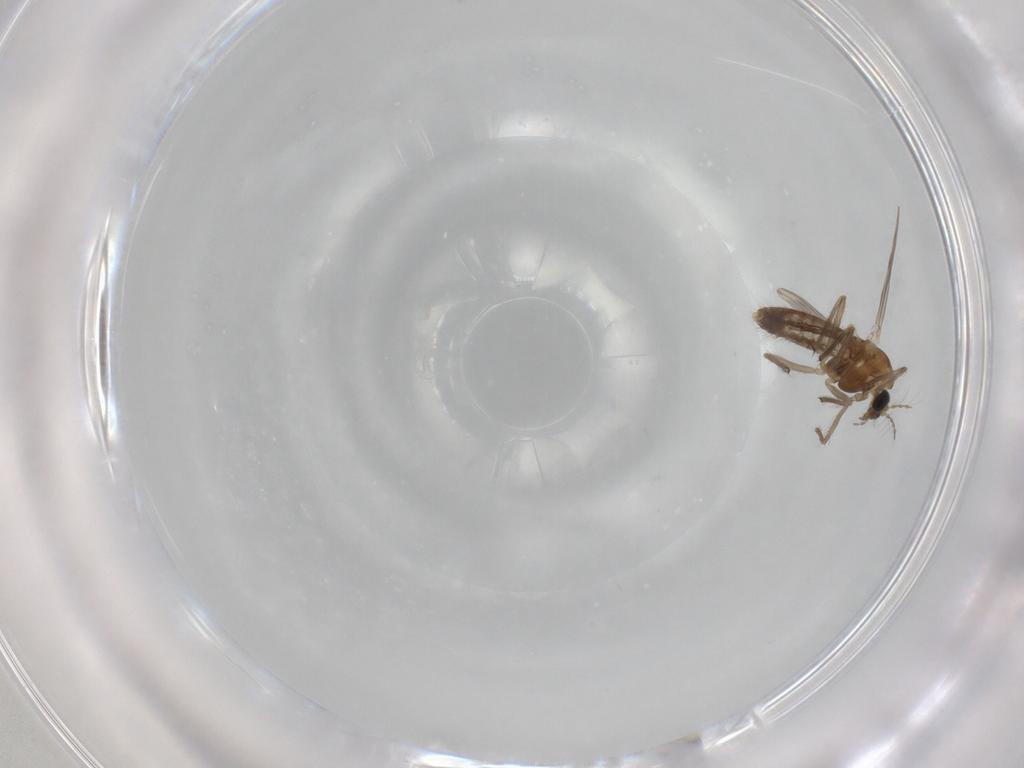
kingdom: Animalia
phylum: Arthropoda
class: Insecta
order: Diptera
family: Chironomidae
